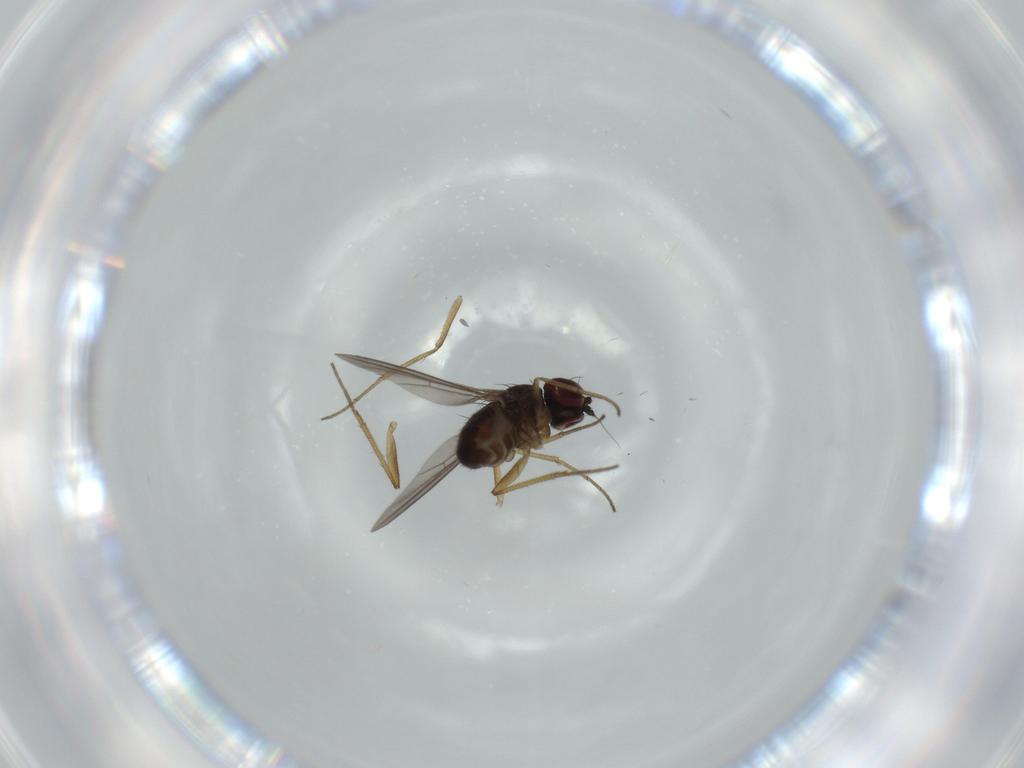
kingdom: Animalia
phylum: Arthropoda
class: Insecta
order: Diptera
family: Dolichopodidae
